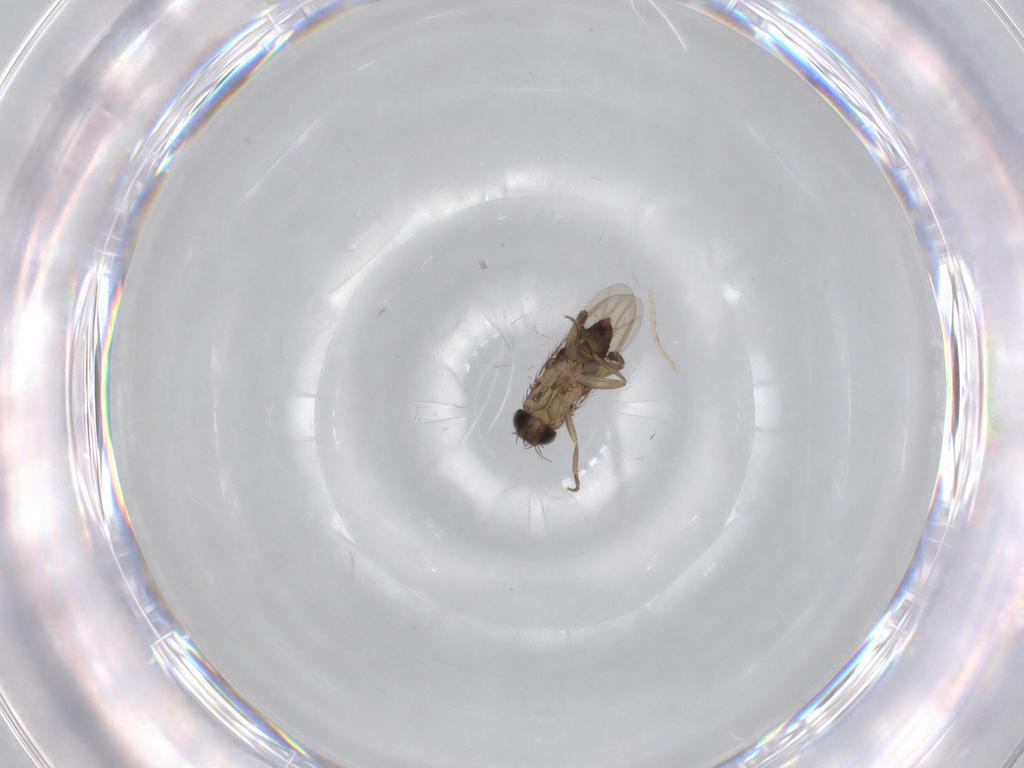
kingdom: Animalia
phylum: Arthropoda
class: Insecta
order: Diptera
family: Phoridae
